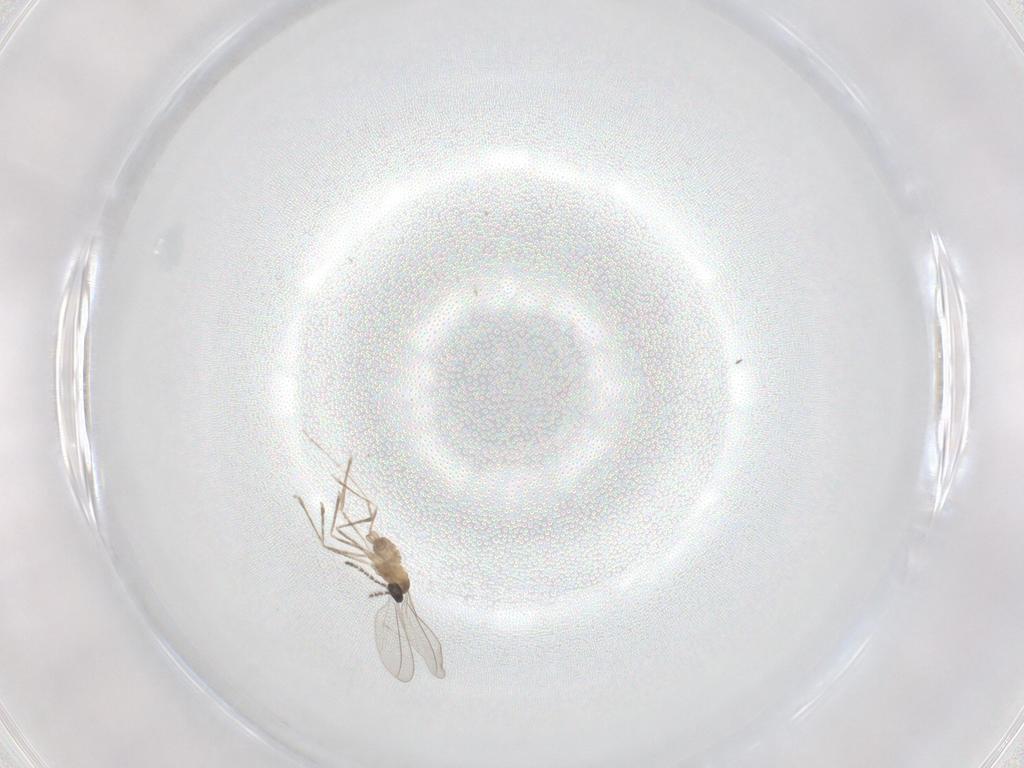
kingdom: Animalia
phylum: Arthropoda
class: Insecta
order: Diptera
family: Cecidomyiidae
